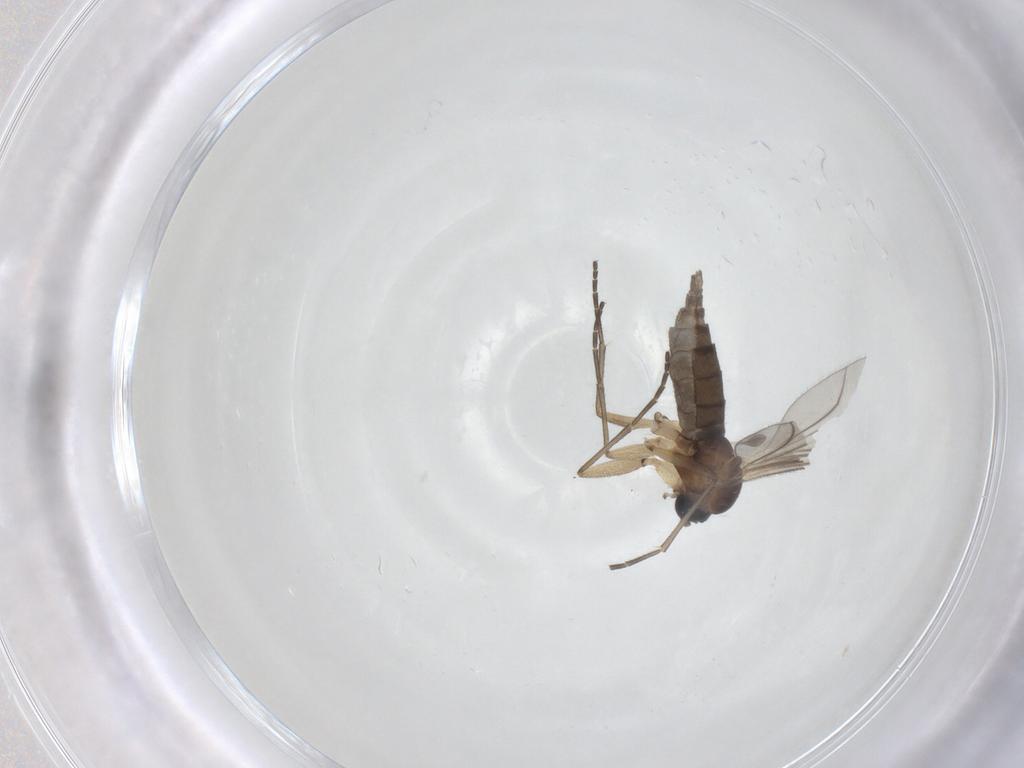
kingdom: Animalia
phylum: Arthropoda
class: Insecta
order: Diptera
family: Sciaridae
